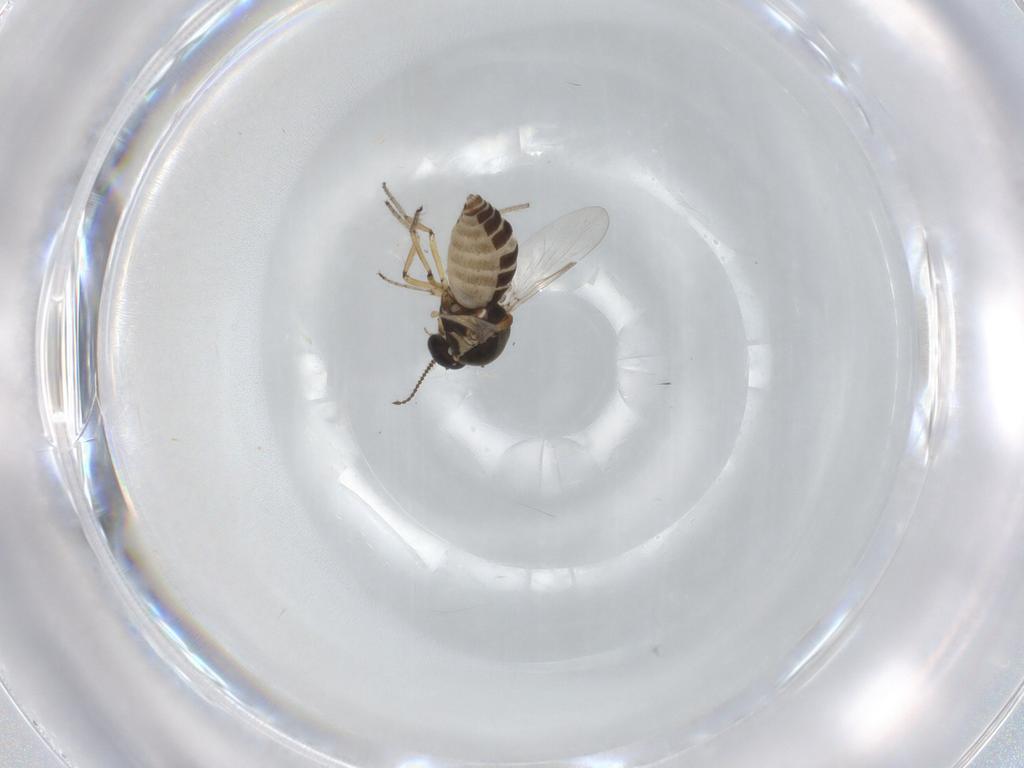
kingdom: Animalia
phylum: Arthropoda
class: Insecta
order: Diptera
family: Ceratopogonidae
